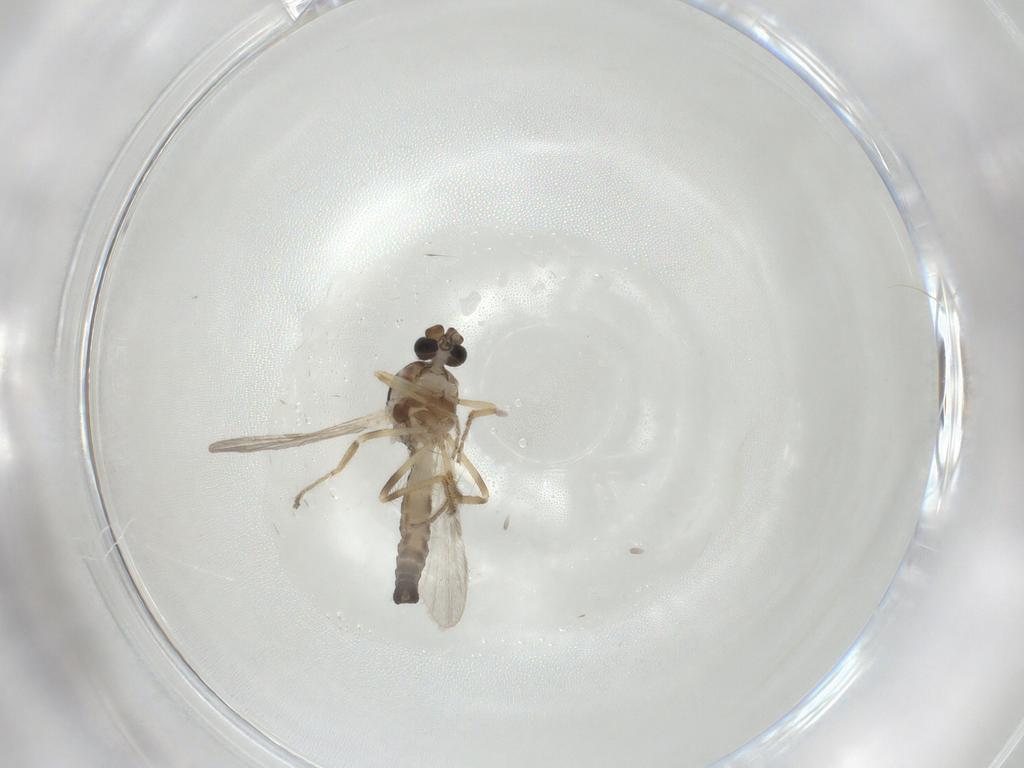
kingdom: Animalia
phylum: Arthropoda
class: Insecta
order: Diptera
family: Ceratopogonidae
